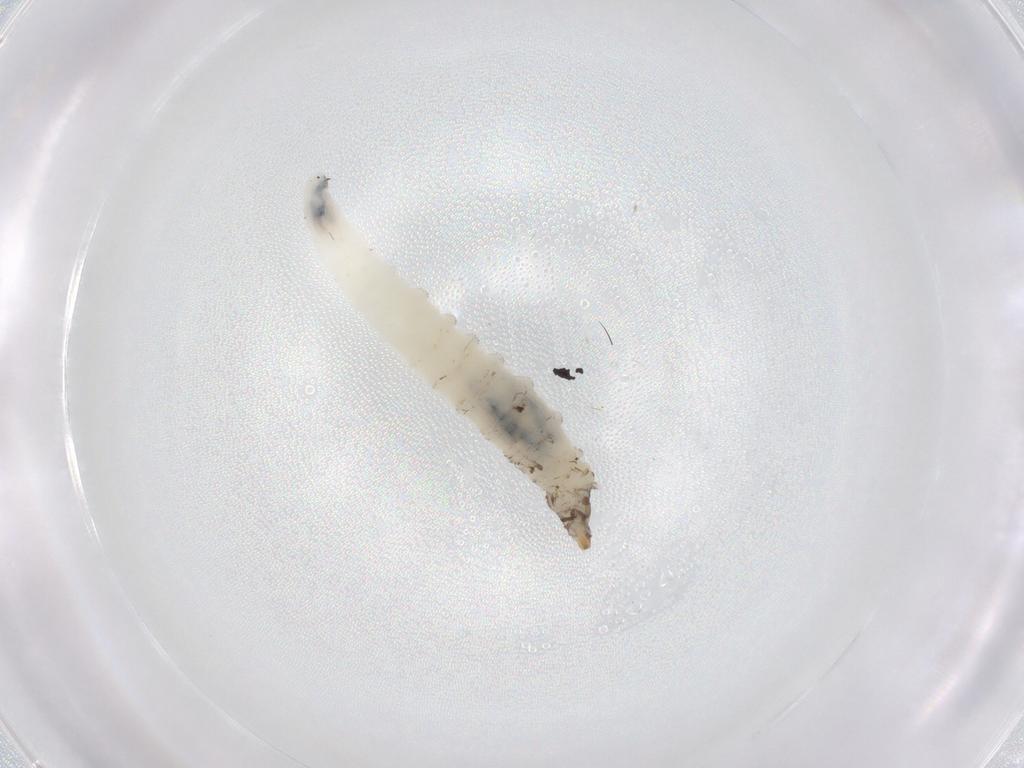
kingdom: Animalia
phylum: Arthropoda
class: Insecta
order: Diptera
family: Drosophilidae
